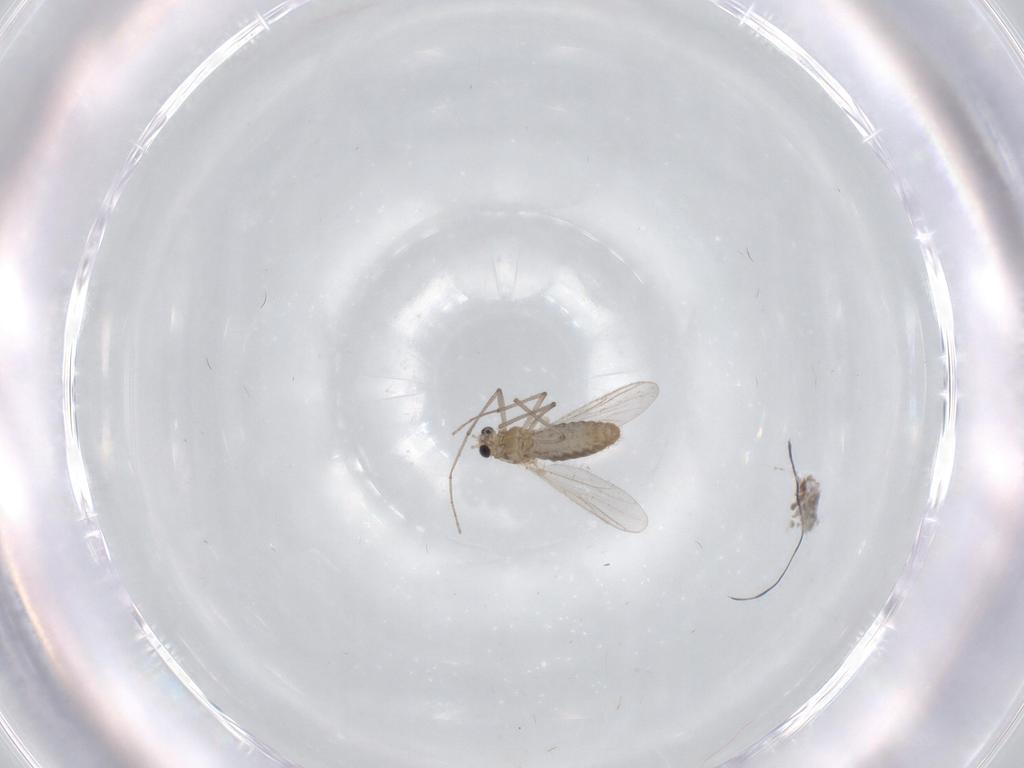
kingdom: Animalia
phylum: Arthropoda
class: Insecta
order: Diptera
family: Chironomidae
